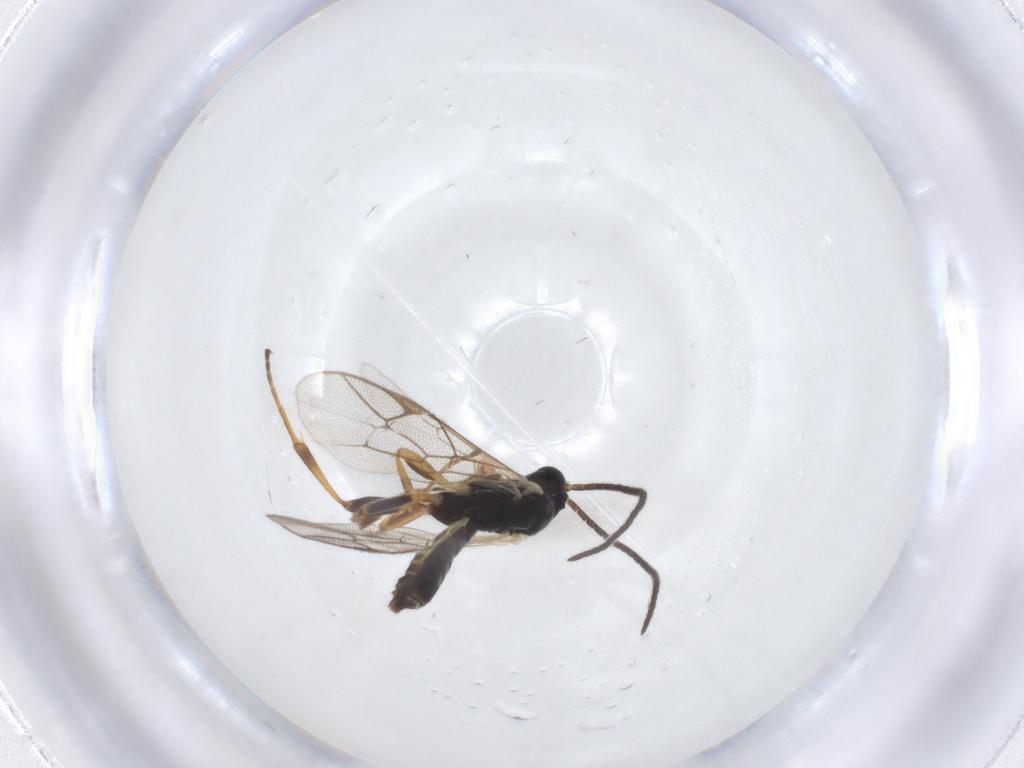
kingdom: Animalia
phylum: Arthropoda
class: Insecta
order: Hymenoptera
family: Ichneumonidae
